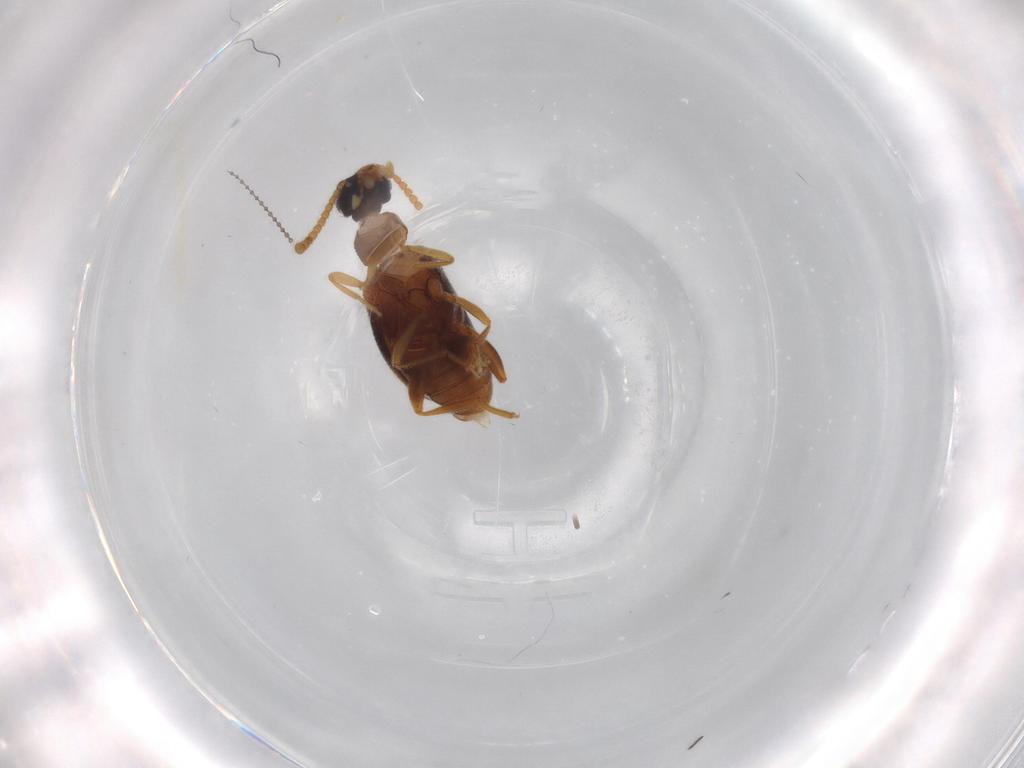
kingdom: Animalia
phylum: Arthropoda
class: Insecta
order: Coleoptera
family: Aderidae
